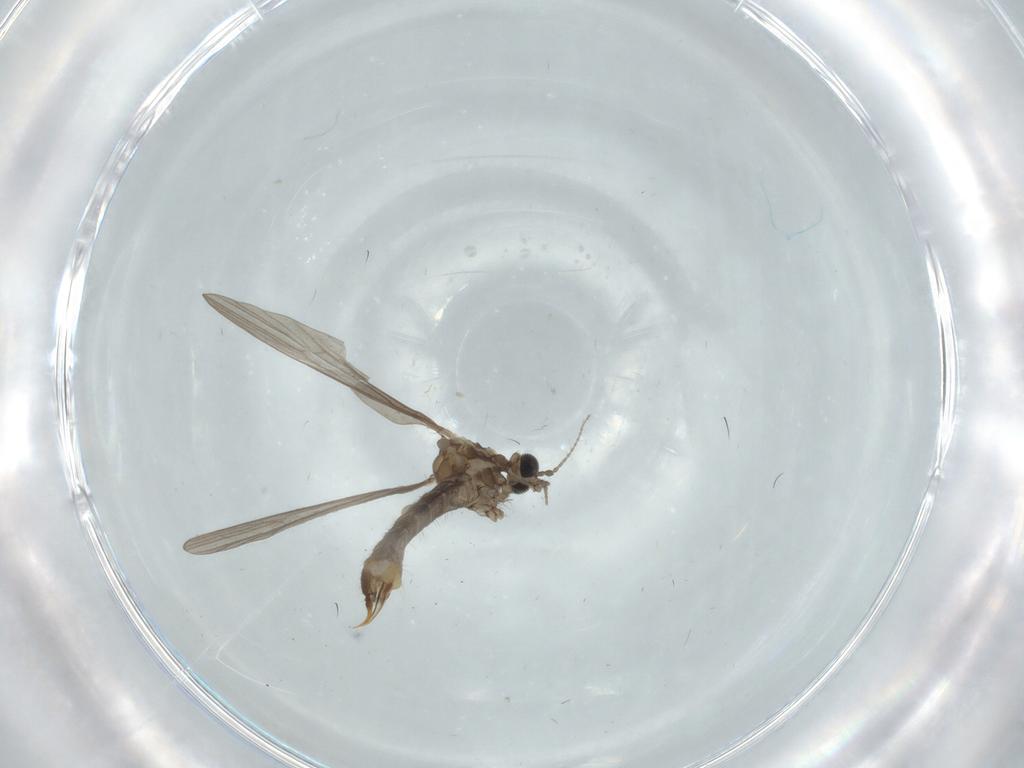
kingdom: Animalia
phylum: Arthropoda
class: Insecta
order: Diptera
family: Limoniidae
